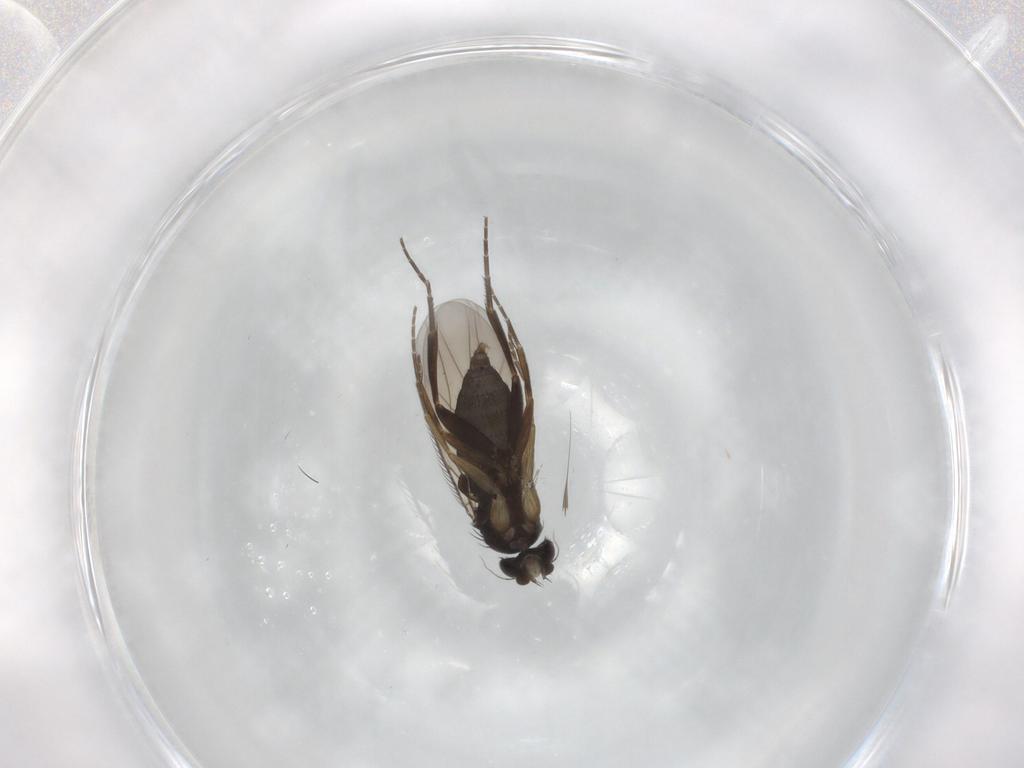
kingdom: Animalia
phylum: Arthropoda
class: Insecta
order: Diptera
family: Phoridae
